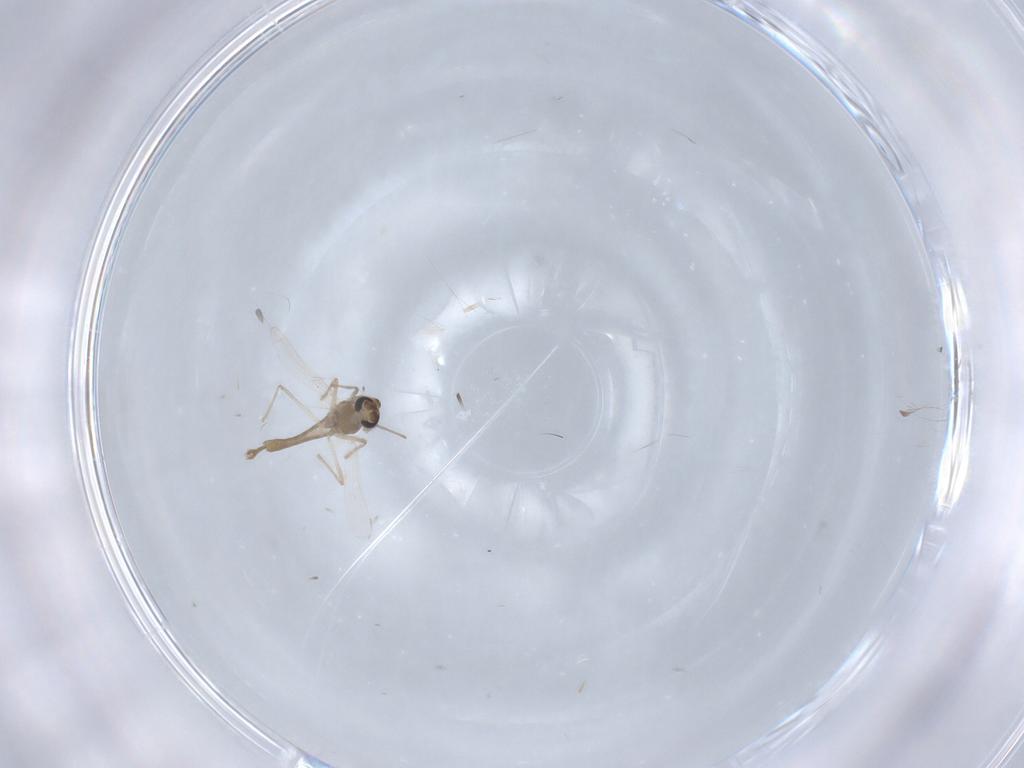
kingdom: Animalia
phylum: Arthropoda
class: Insecta
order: Diptera
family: Chironomidae
